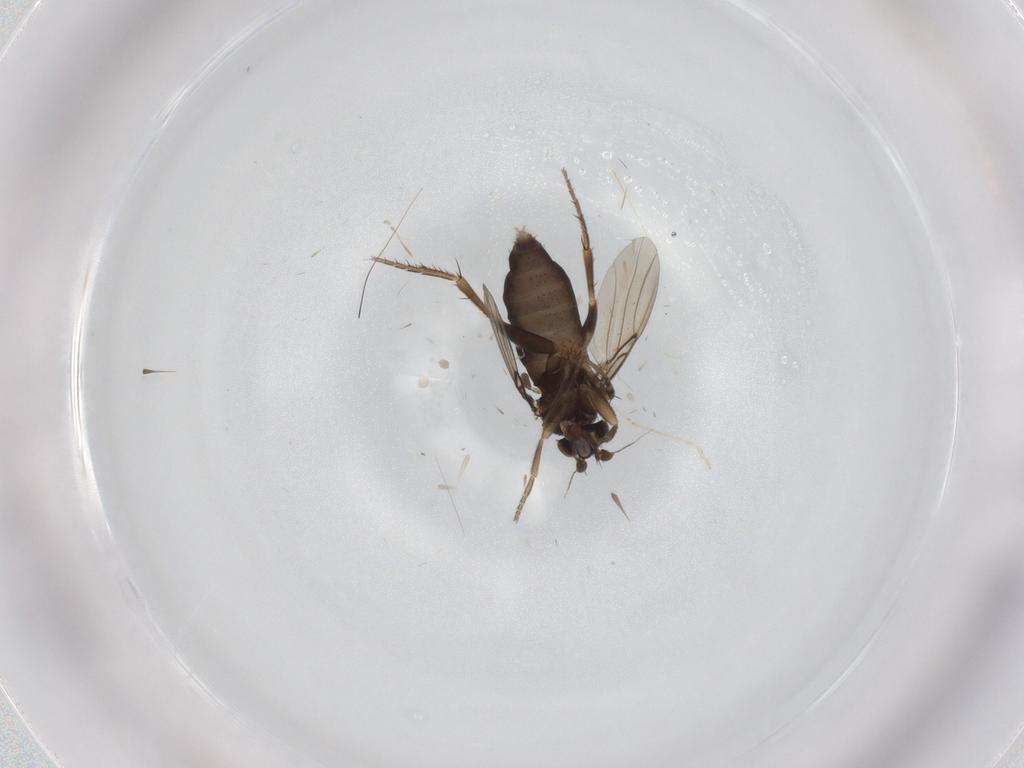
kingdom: Animalia
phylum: Arthropoda
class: Insecta
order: Diptera
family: Phoridae
